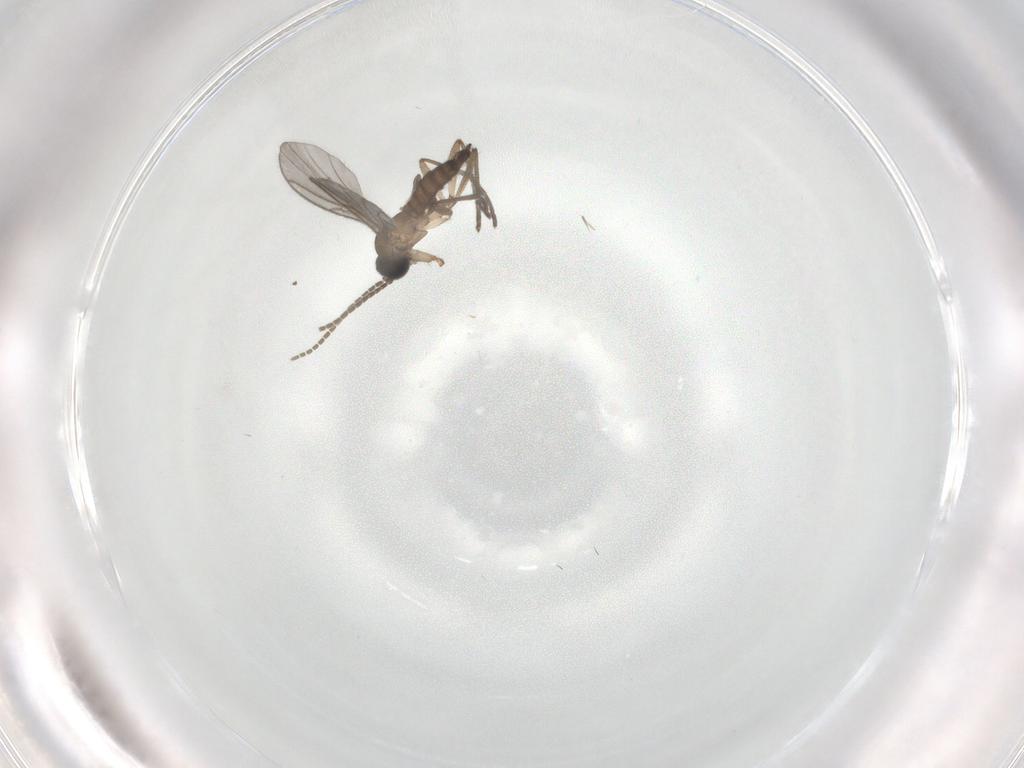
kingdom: Animalia
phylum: Arthropoda
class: Insecta
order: Diptera
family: Sciaridae
